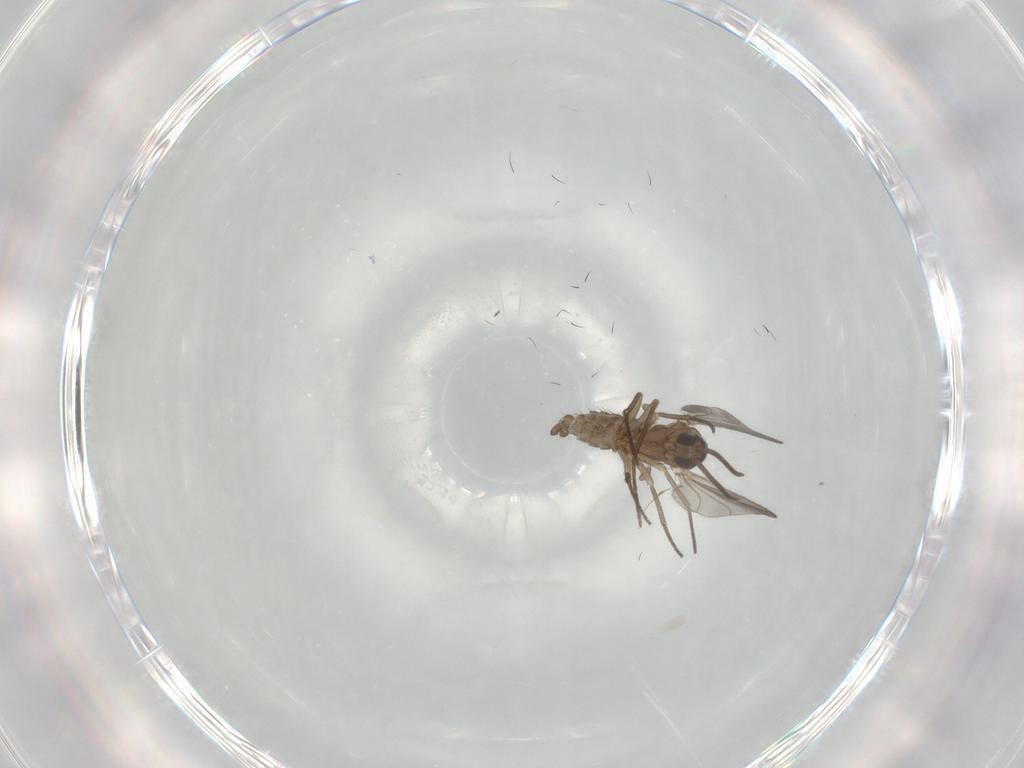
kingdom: Animalia
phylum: Arthropoda
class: Insecta
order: Diptera
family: Sciaridae
